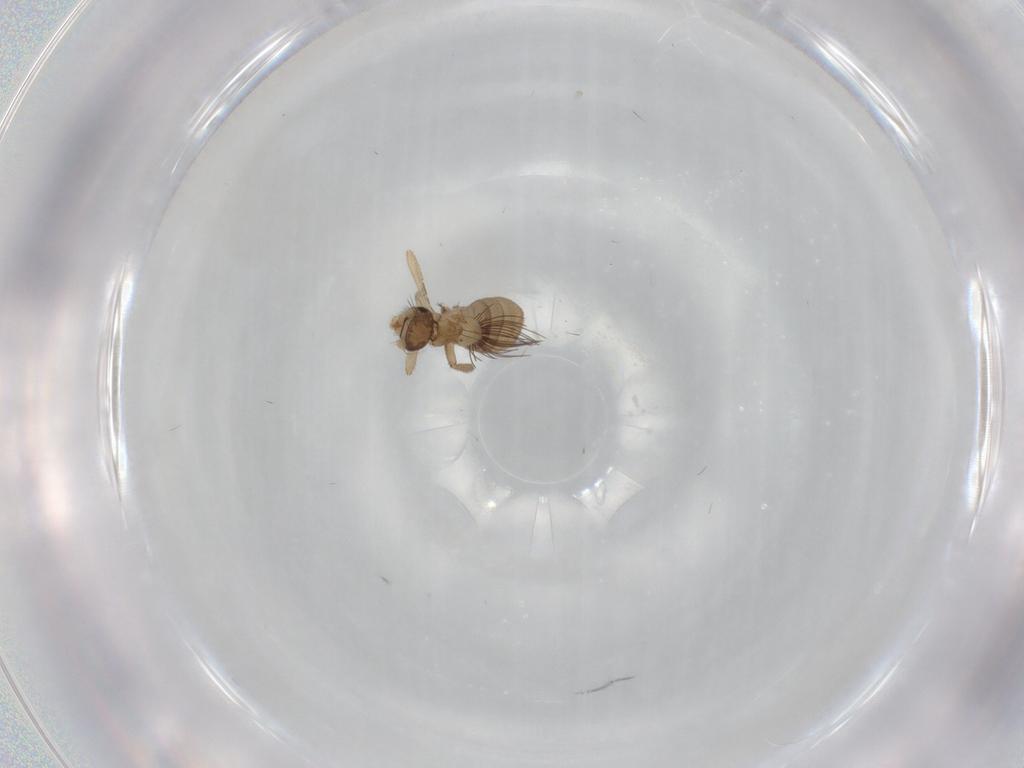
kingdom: Animalia
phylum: Arthropoda
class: Insecta
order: Diptera
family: Phoridae
